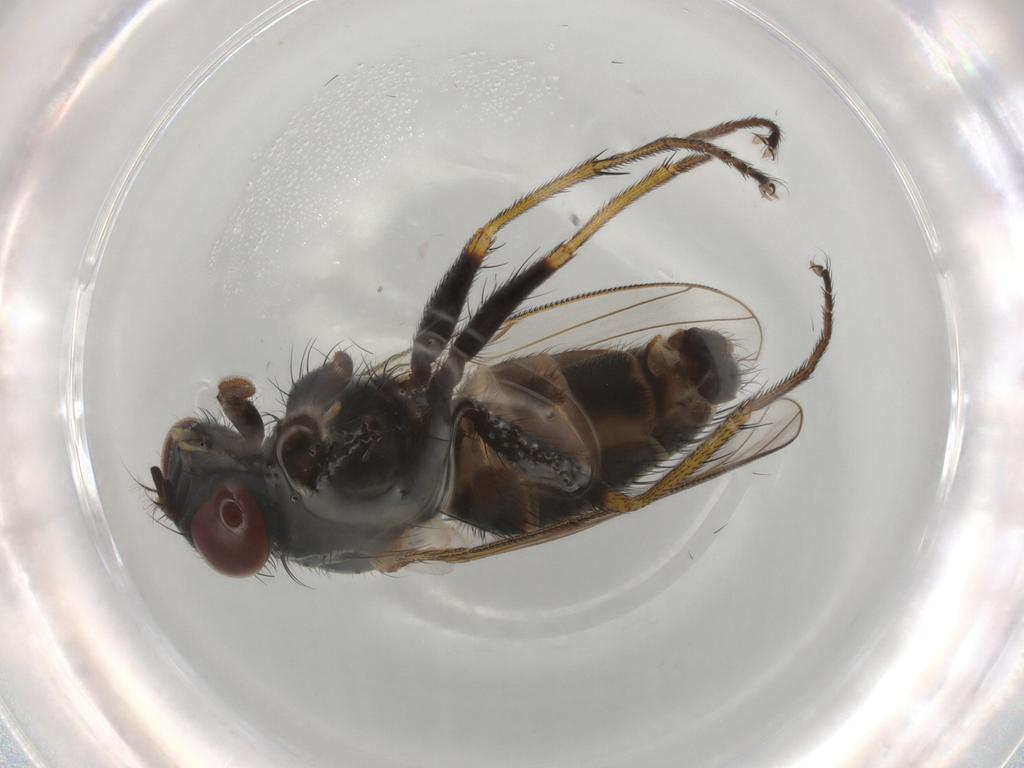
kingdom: Animalia
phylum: Arthropoda
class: Insecta
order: Diptera
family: Muscidae
